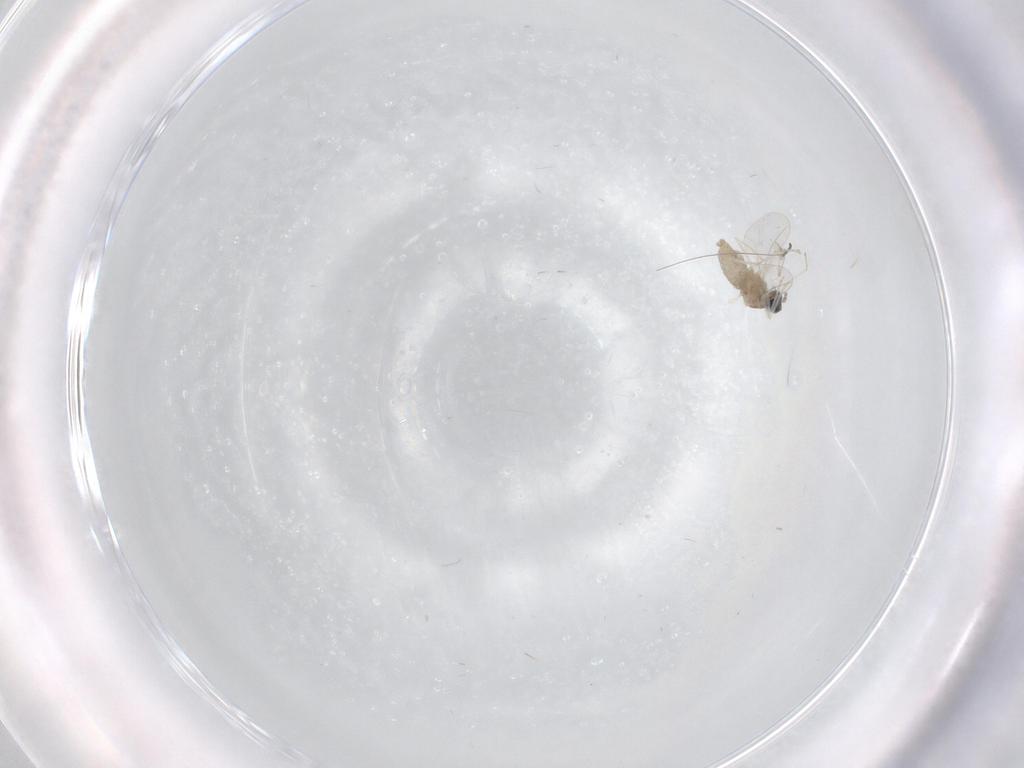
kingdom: Animalia
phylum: Arthropoda
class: Insecta
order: Diptera
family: Cecidomyiidae
